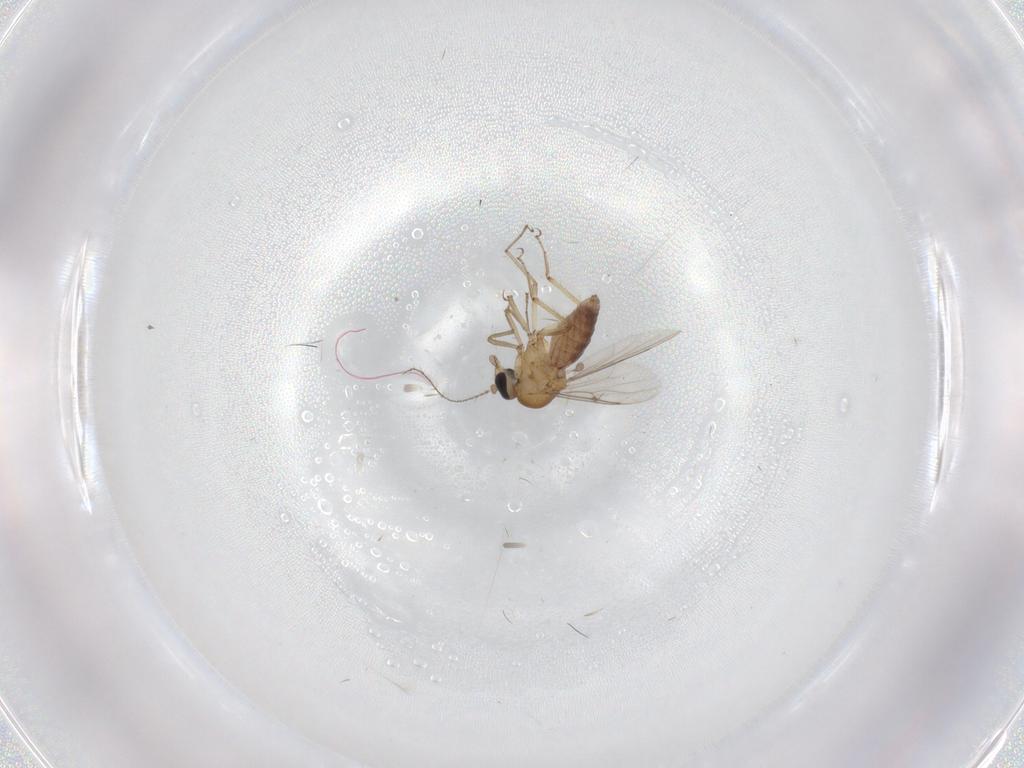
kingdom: Animalia
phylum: Arthropoda
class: Insecta
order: Diptera
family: Ceratopogonidae
